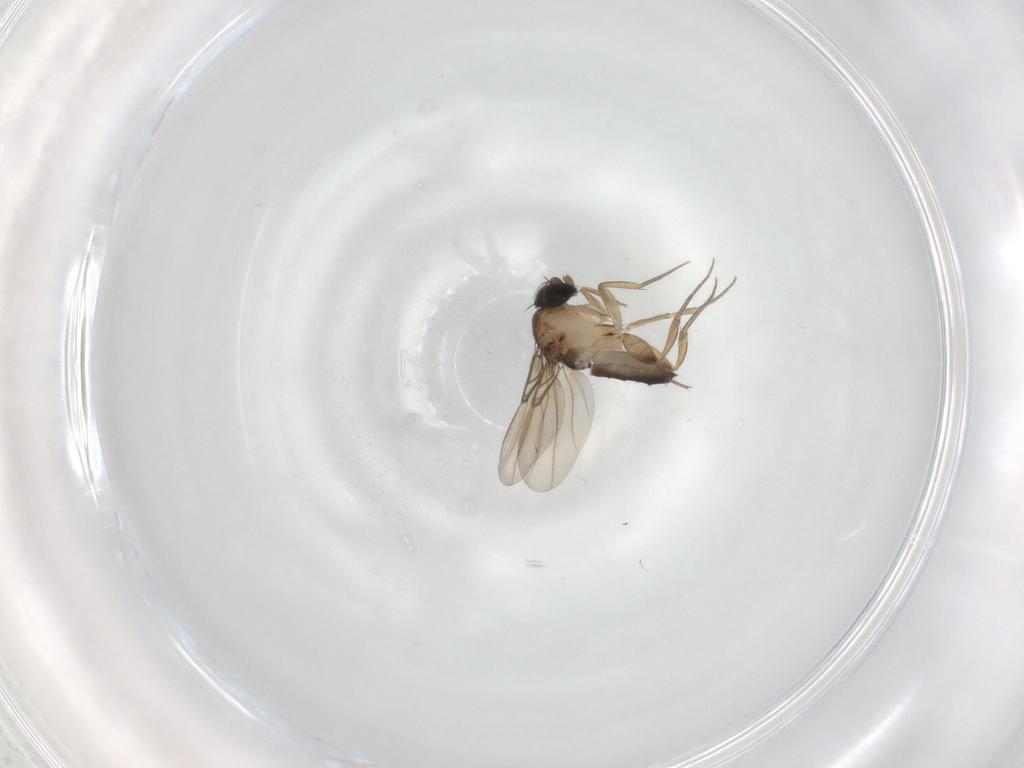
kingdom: Animalia
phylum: Arthropoda
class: Insecta
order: Diptera
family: Phoridae
